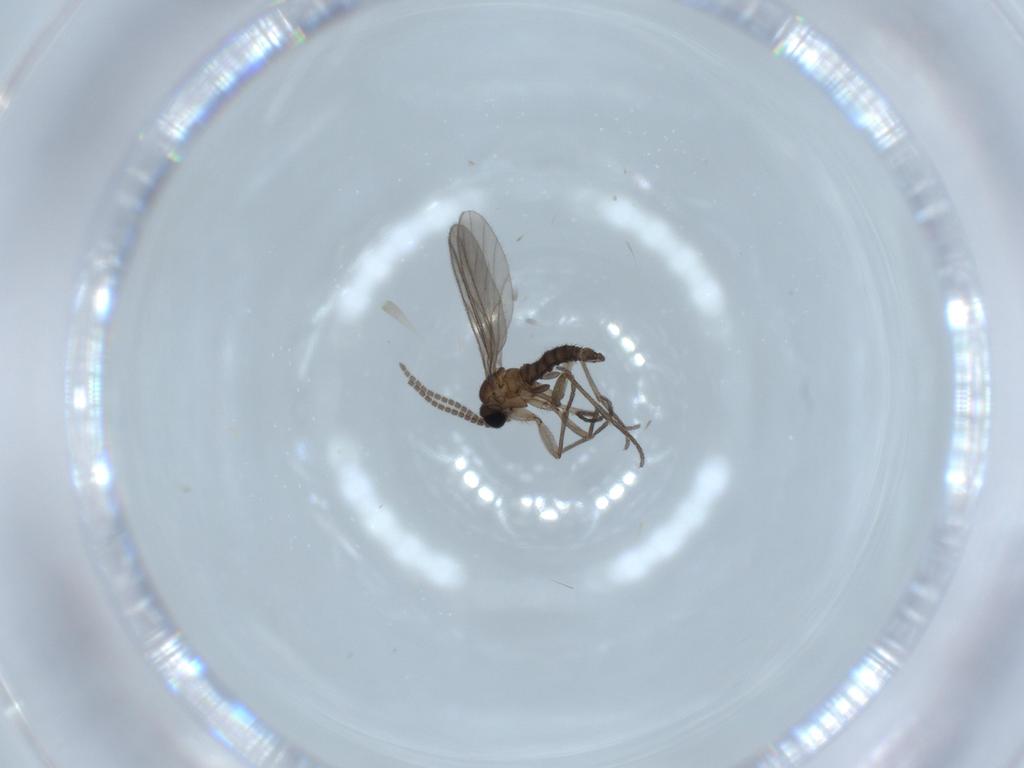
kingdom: Animalia
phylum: Arthropoda
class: Insecta
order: Diptera
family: Sciaridae
